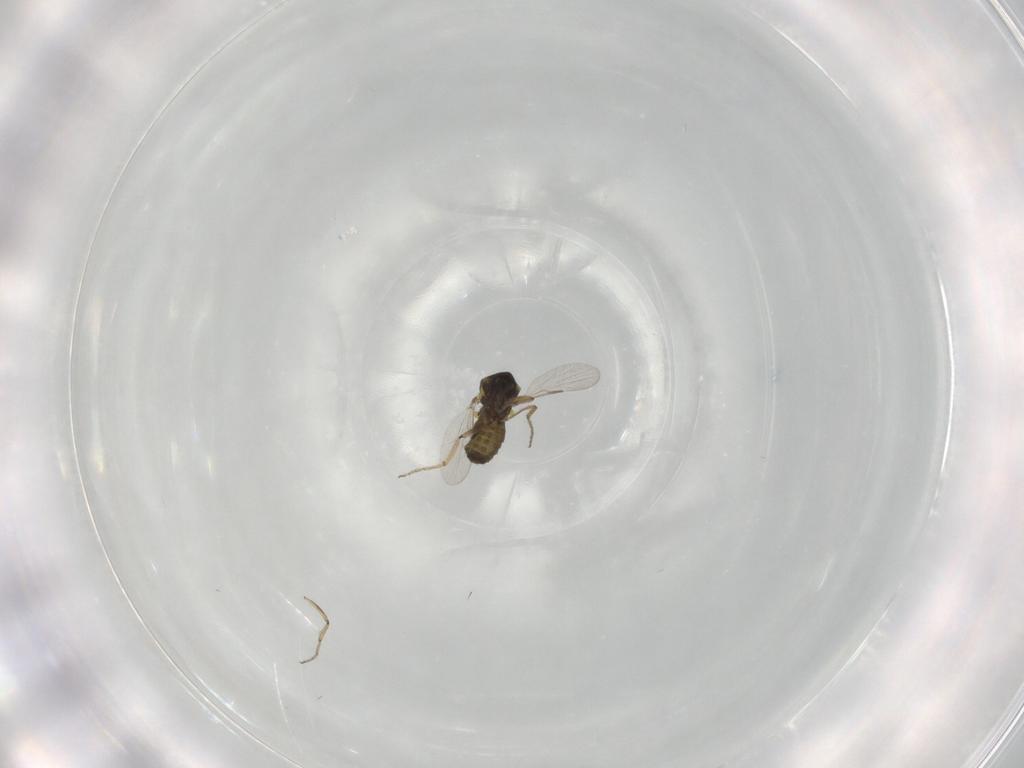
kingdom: Animalia
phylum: Arthropoda
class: Insecta
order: Diptera
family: Ceratopogonidae
